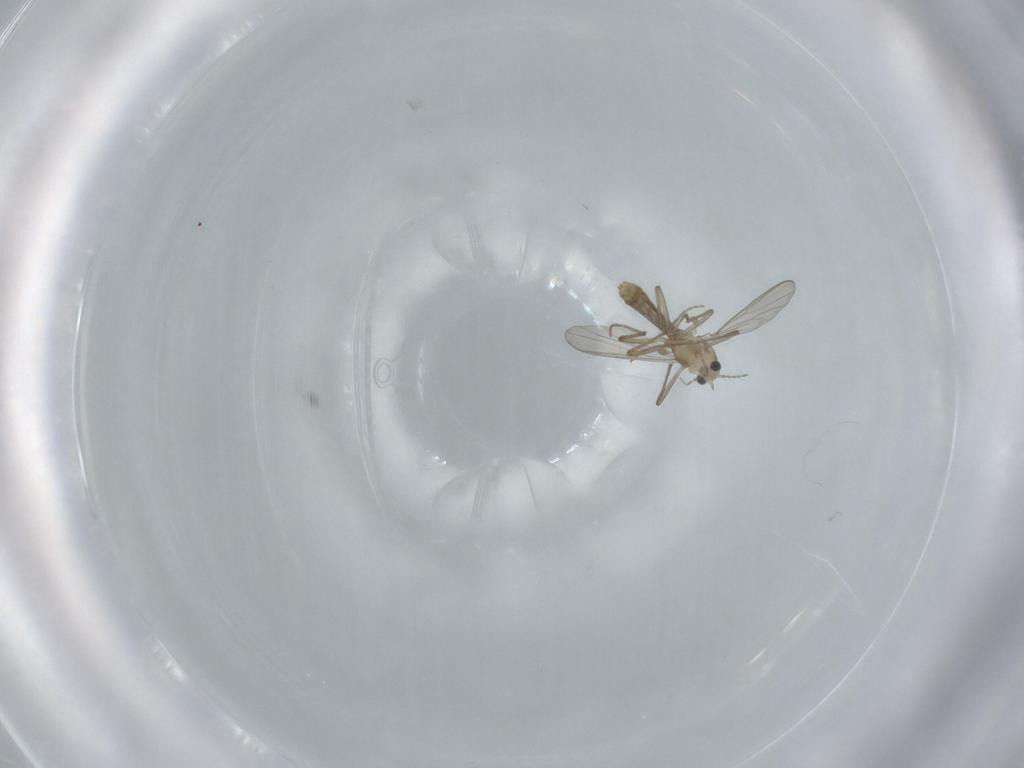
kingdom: Animalia
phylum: Arthropoda
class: Insecta
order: Diptera
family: Chironomidae
